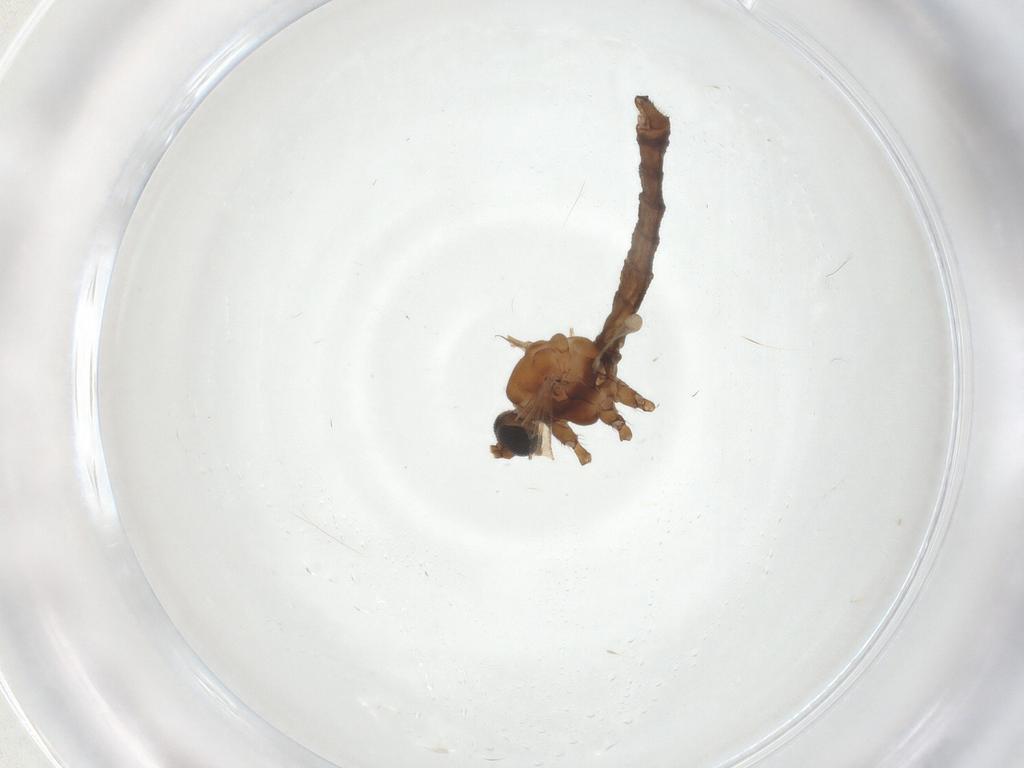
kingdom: Animalia
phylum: Arthropoda
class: Insecta
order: Diptera
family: Limoniidae
